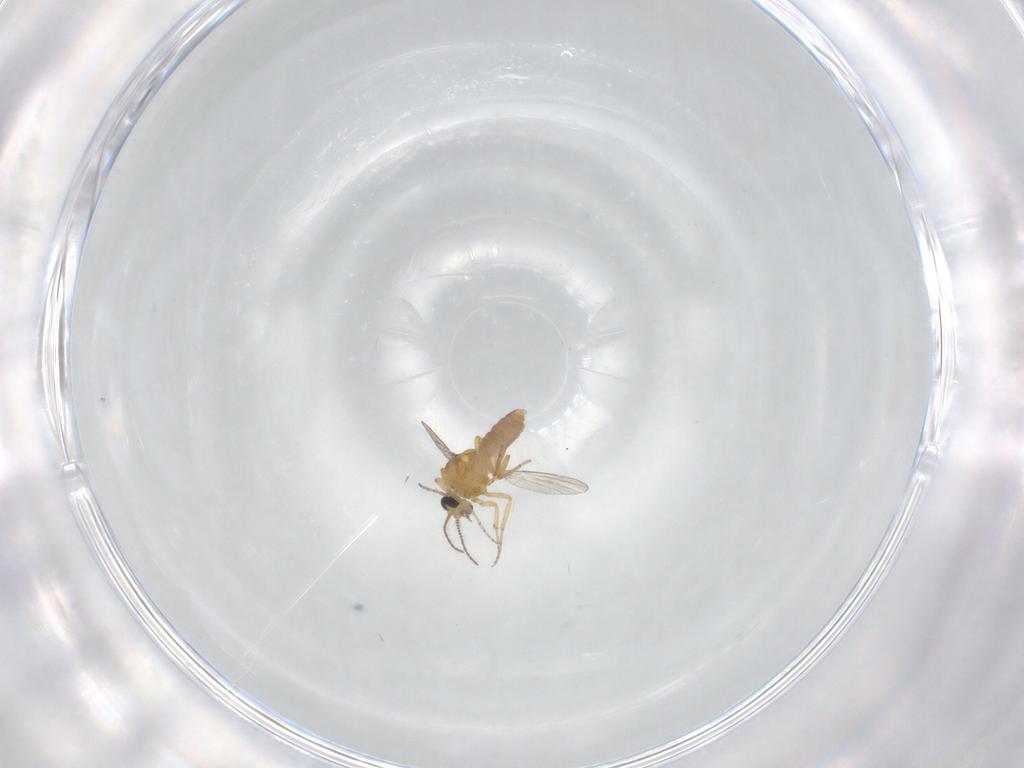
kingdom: Animalia
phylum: Arthropoda
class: Insecta
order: Diptera
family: Ceratopogonidae
